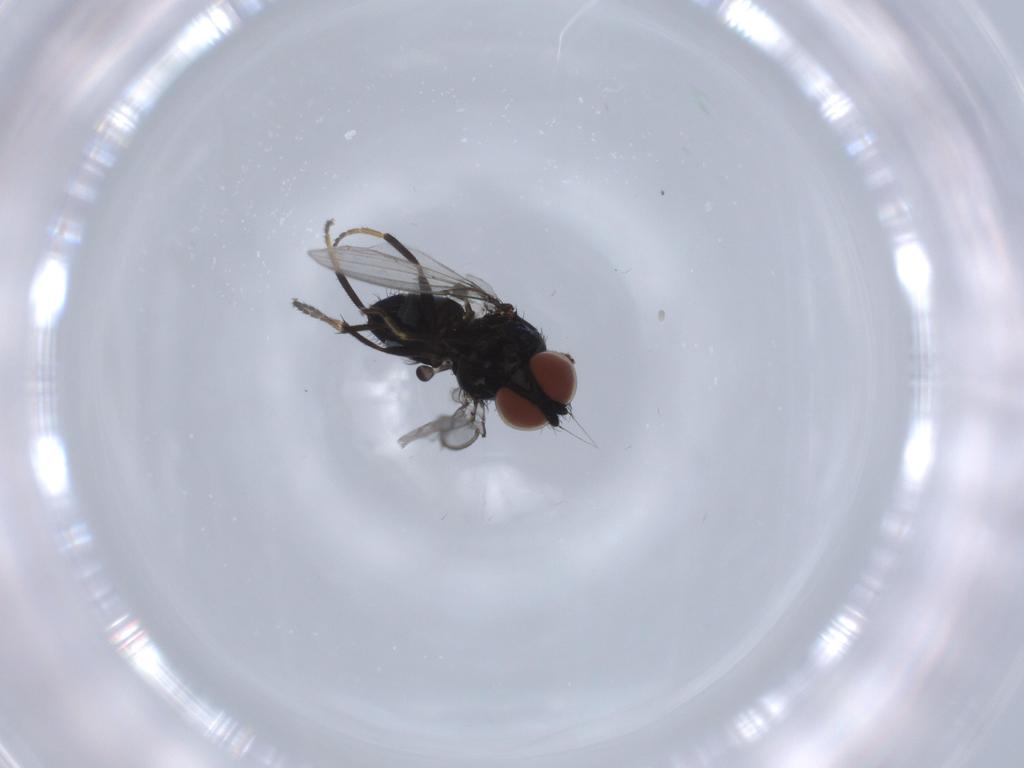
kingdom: Animalia
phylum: Arthropoda
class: Insecta
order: Diptera
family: Milichiidae
